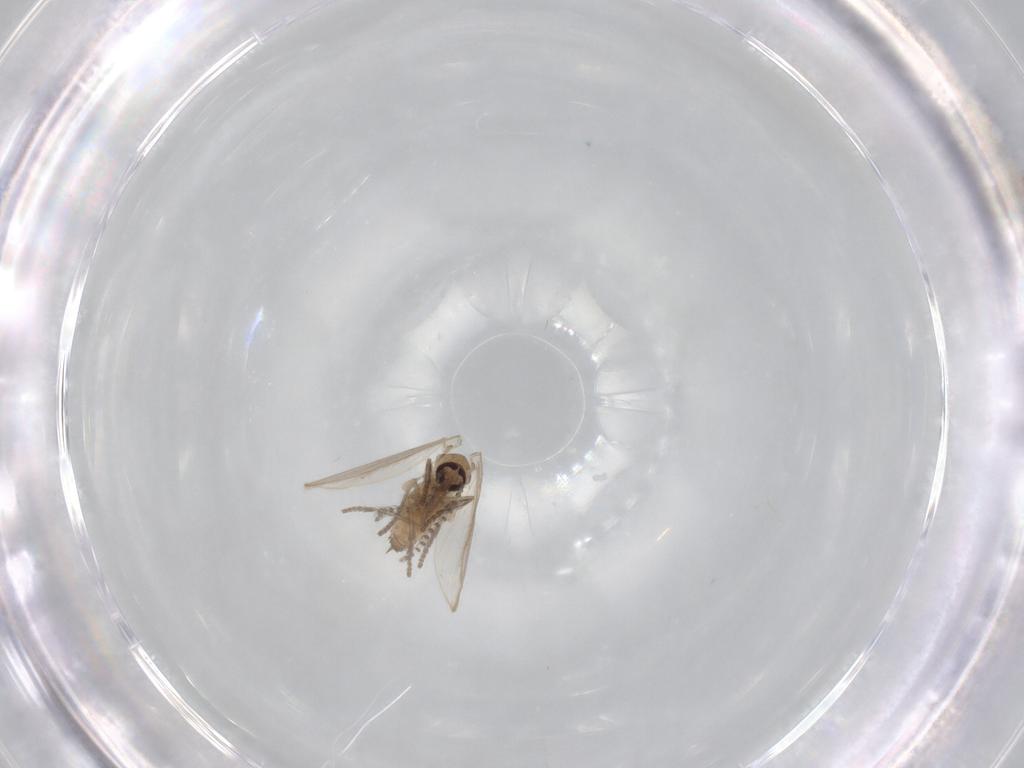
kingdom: Animalia
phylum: Arthropoda
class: Insecta
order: Diptera
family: Psychodidae
